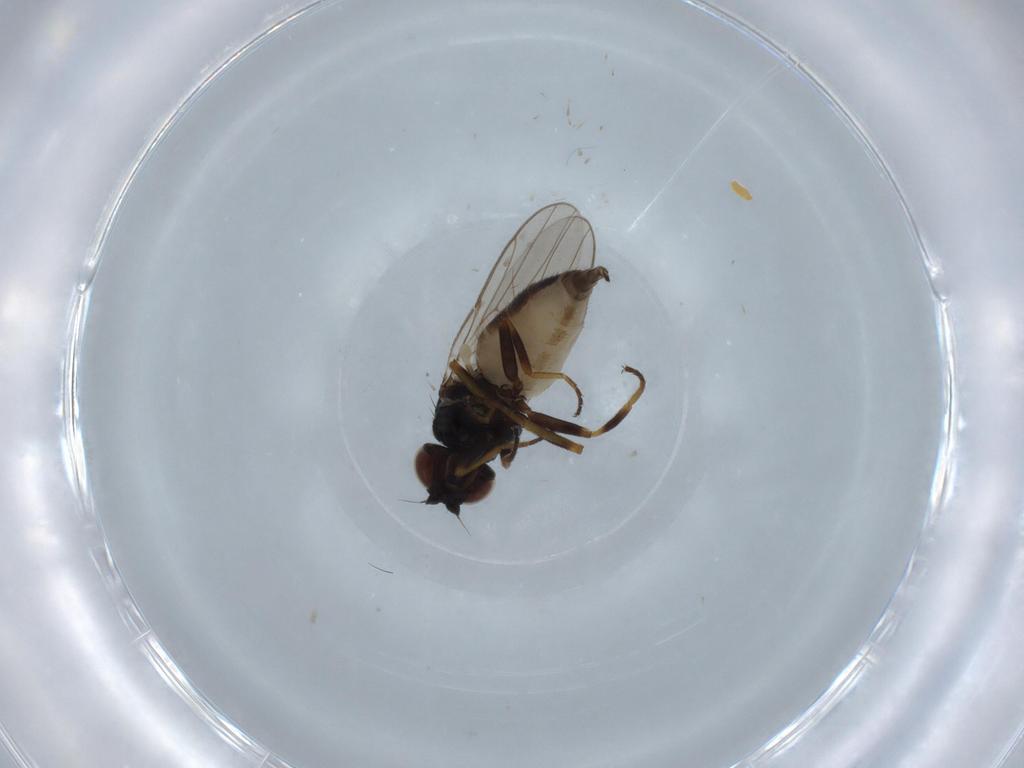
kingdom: Animalia
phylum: Arthropoda
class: Insecta
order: Diptera
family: Chloropidae
